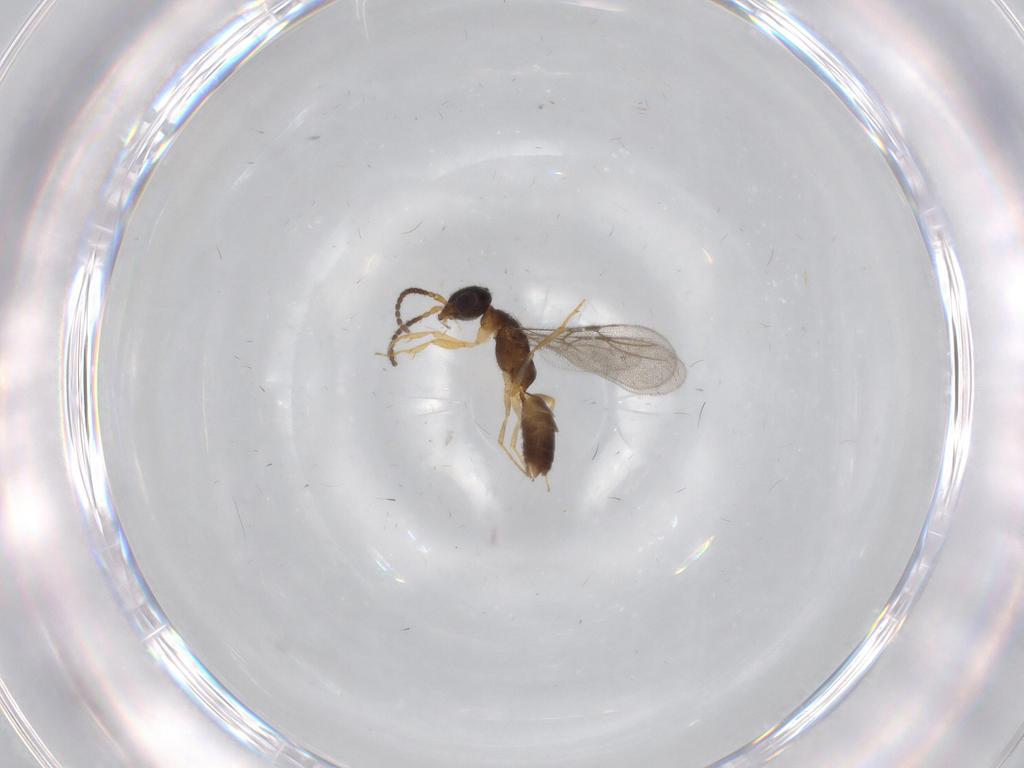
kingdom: Animalia
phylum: Arthropoda
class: Insecta
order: Hymenoptera
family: Bethylidae
